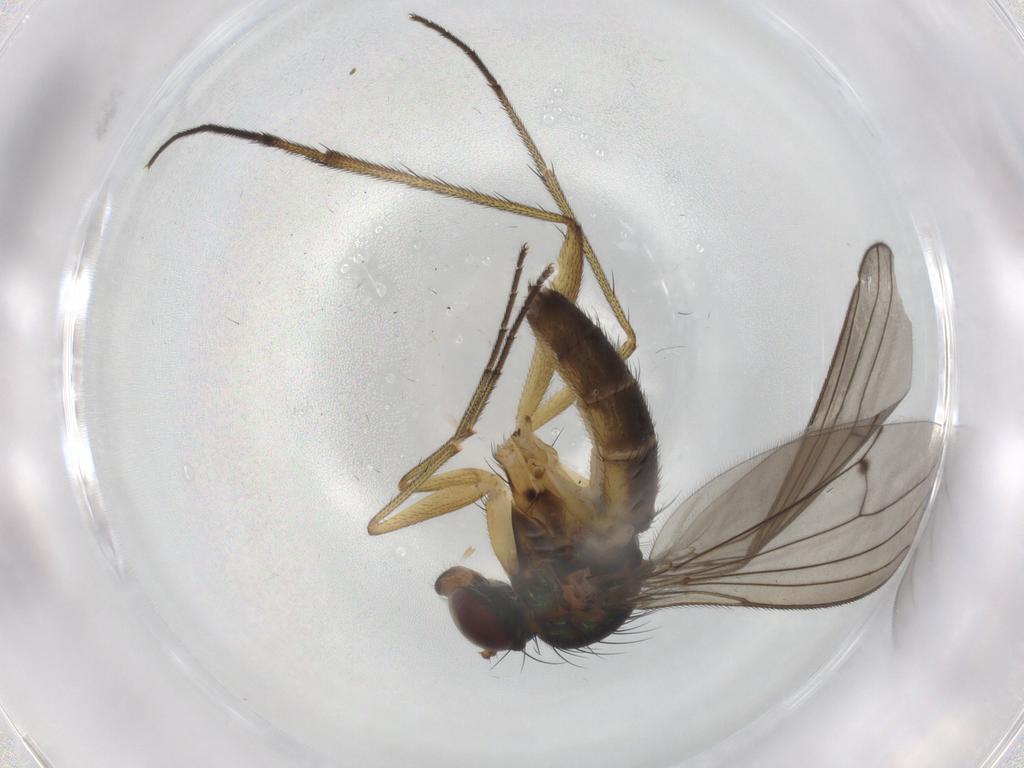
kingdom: Animalia
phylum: Arthropoda
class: Insecta
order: Diptera
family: Dolichopodidae
